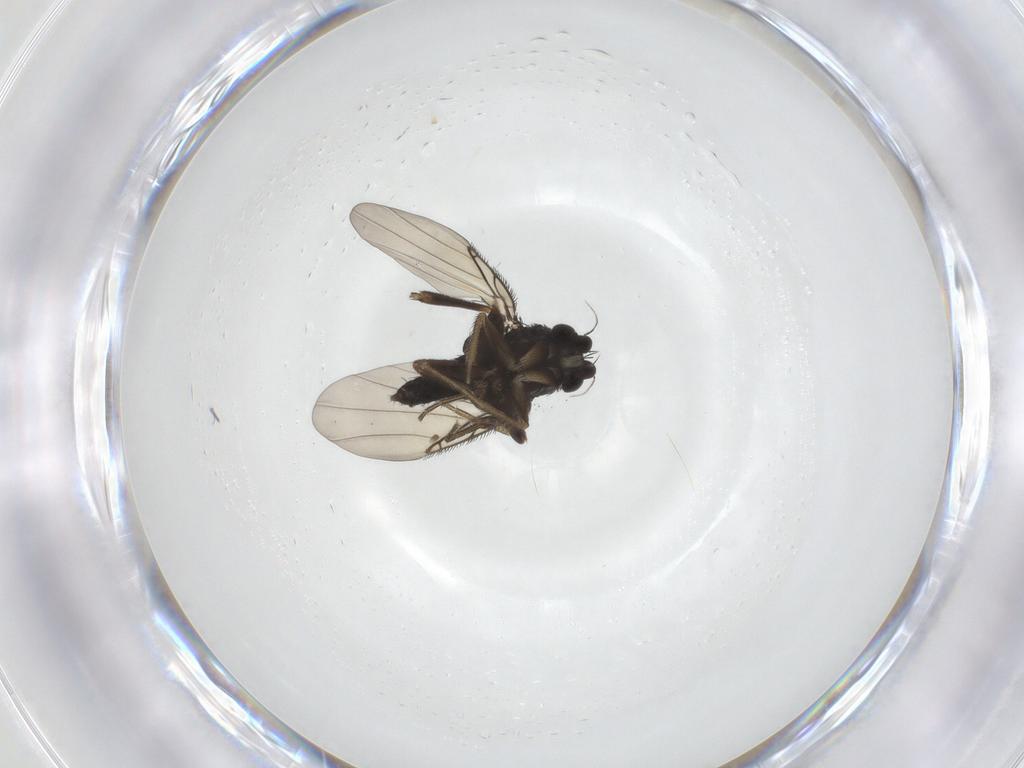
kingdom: Animalia
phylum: Arthropoda
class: Insecta
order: Diptera
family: Phoridae
